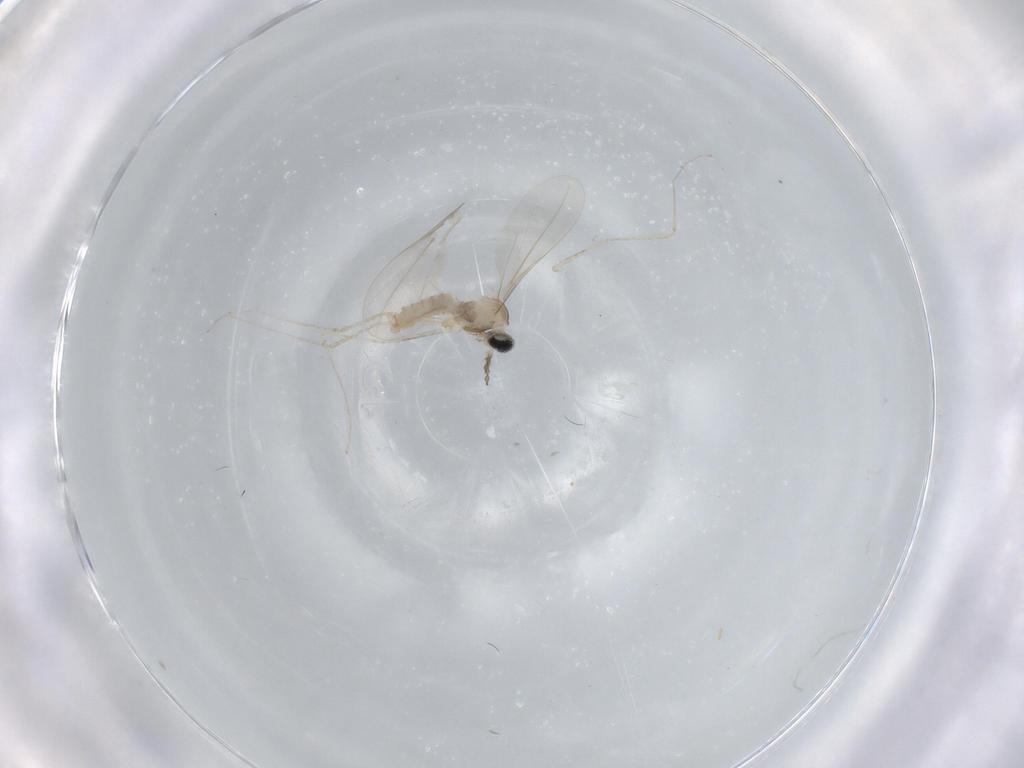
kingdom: Animalia
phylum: Arthropoda
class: Insecta
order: Diptera
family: Cecidomyiidae
